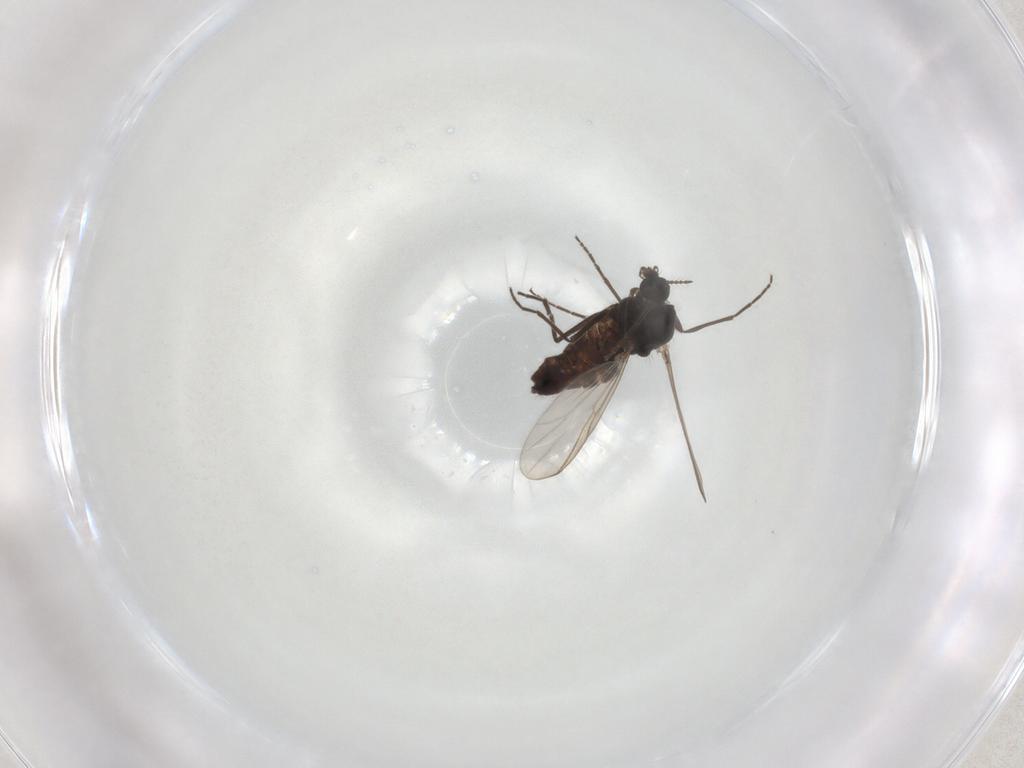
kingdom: Animalia
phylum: Arthropoda
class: Insecta
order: Diptera
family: Chironomidae
